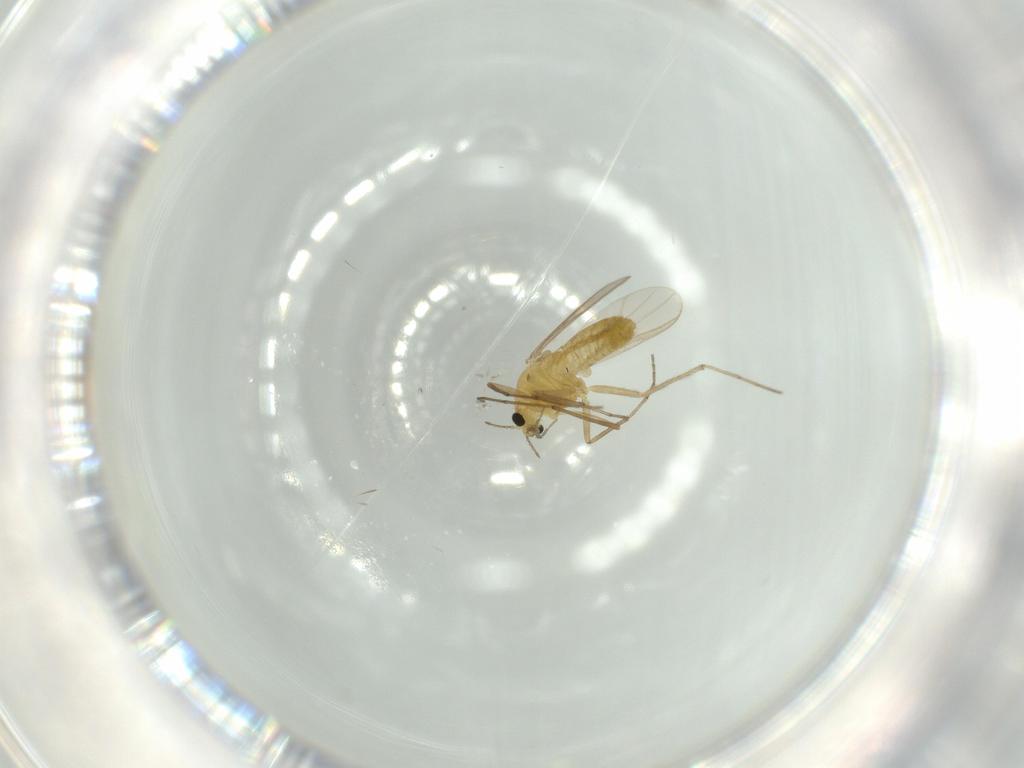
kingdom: Animalia
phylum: Arthropoda
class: Insecta
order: Diptera
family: Chironomidae
